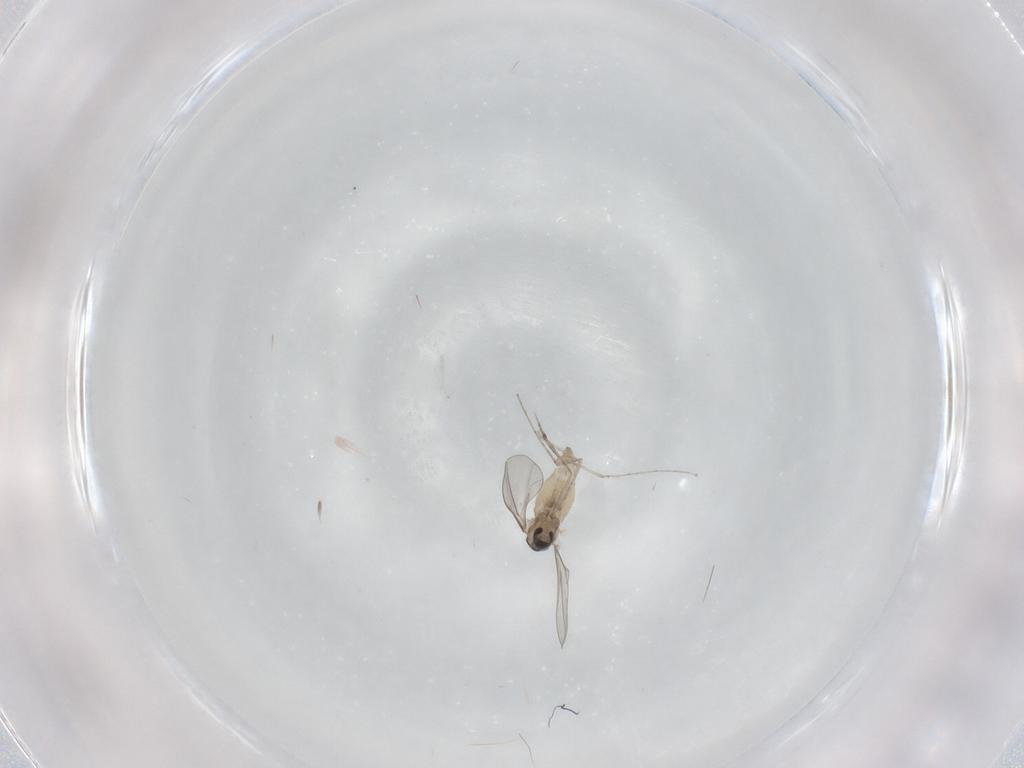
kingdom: Animalia
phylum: Arthropoda
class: Insecta
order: Diptera
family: Cecidomyiidae
